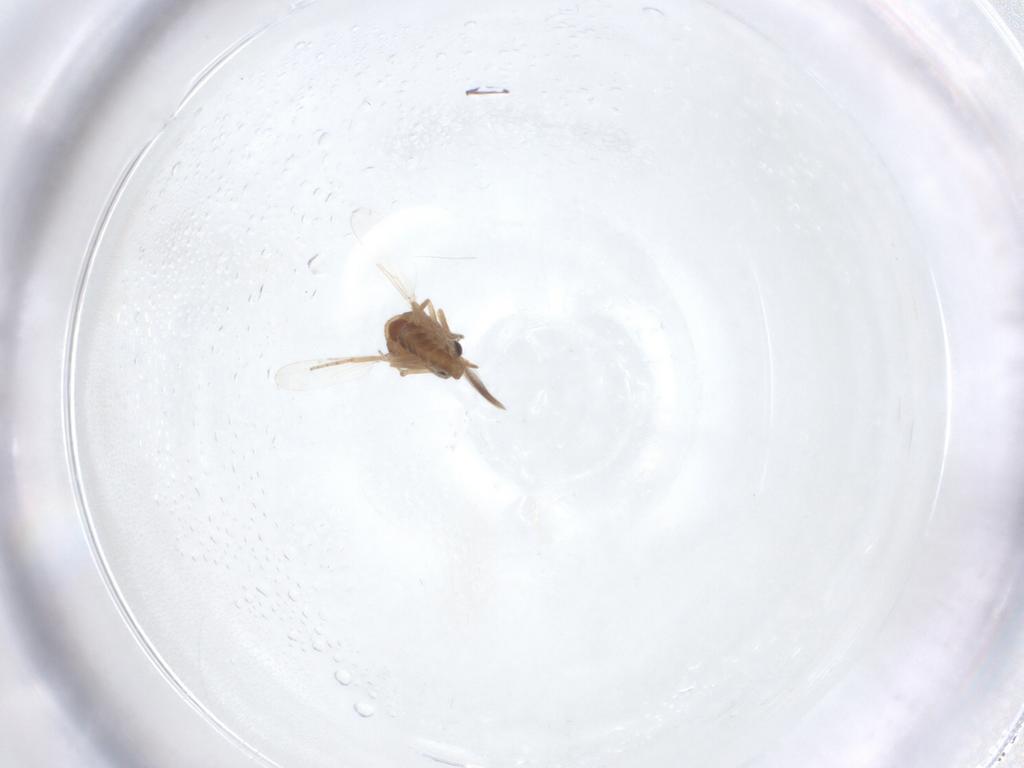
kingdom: Animalia
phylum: Arthropoda
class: Insecta
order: Diptera
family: Ceratopogonidae
